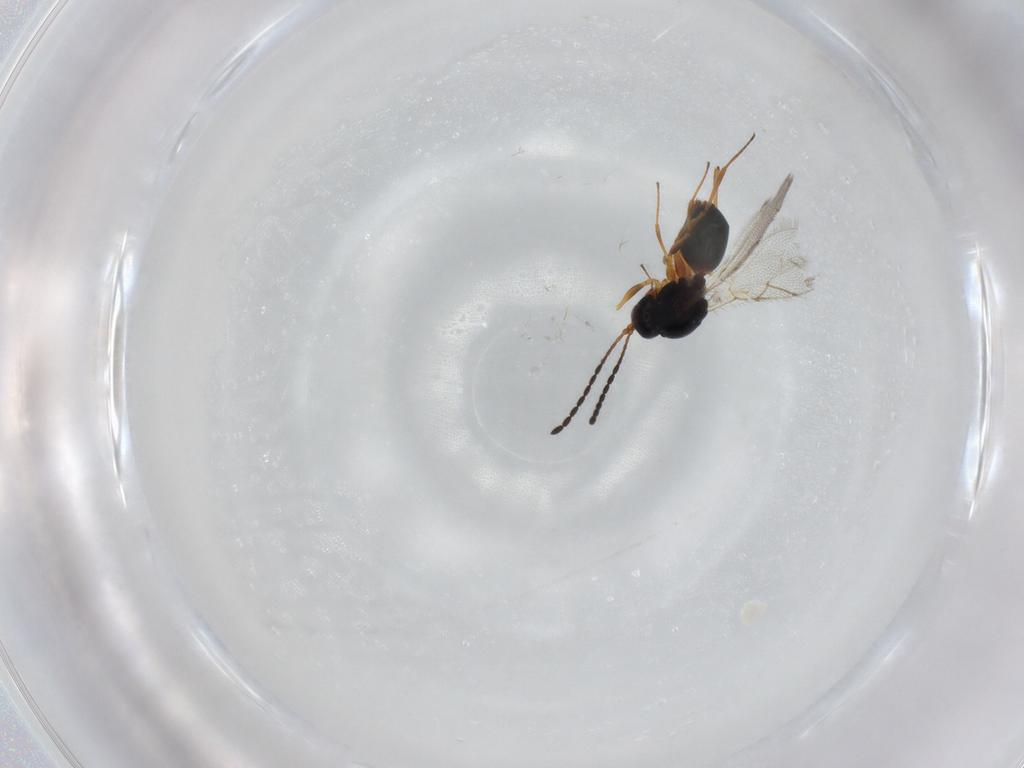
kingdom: Animalia
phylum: Arthropoda
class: Insecta
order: Hymenoptera
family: Figitidae
